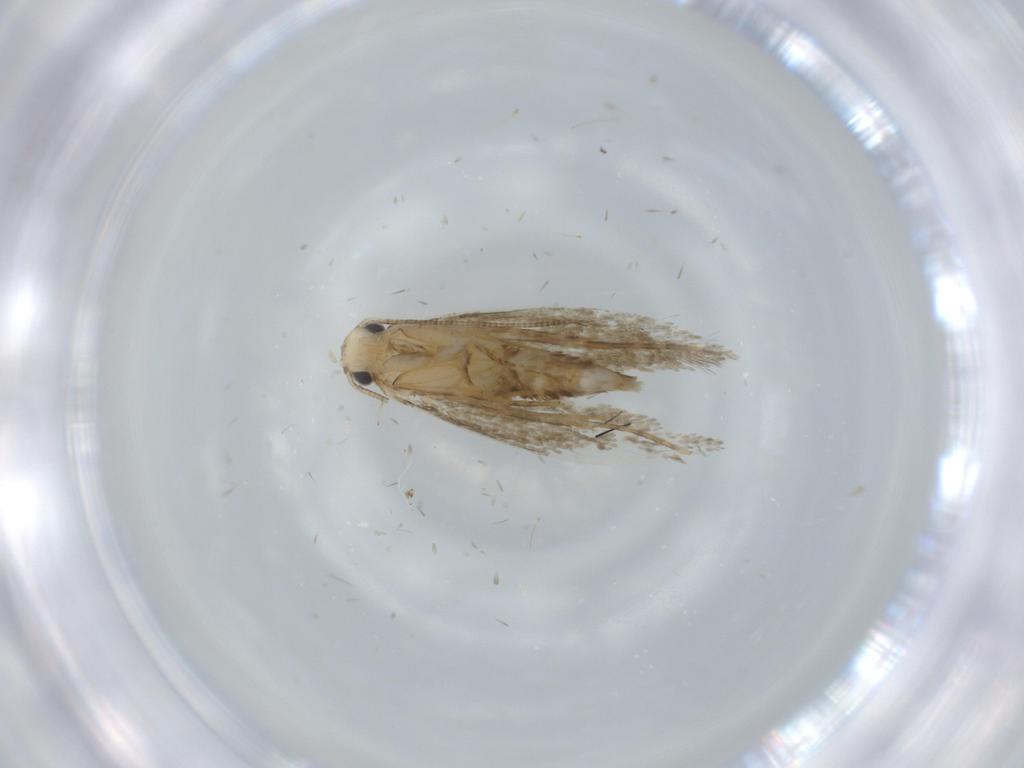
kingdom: Animalia
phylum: Arthropoda
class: Insecta
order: Lepidoptera
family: Tineidae
